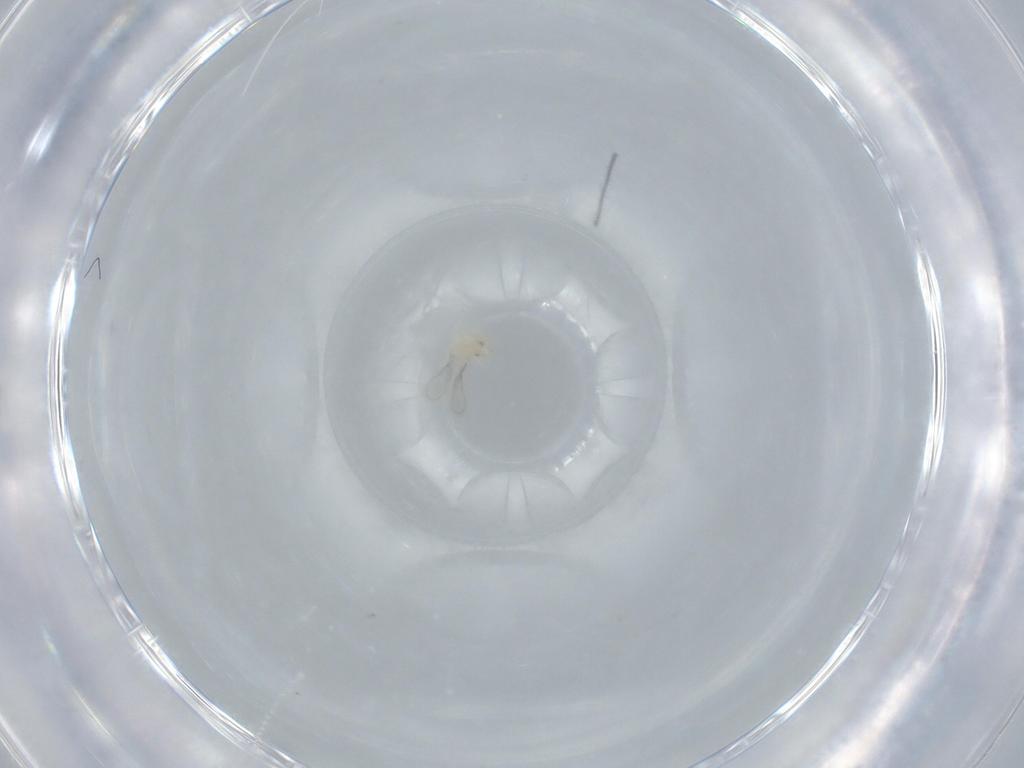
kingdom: Animalia
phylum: Arthropoda
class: Insecta
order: Hymenoptera
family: Aphelinidae
